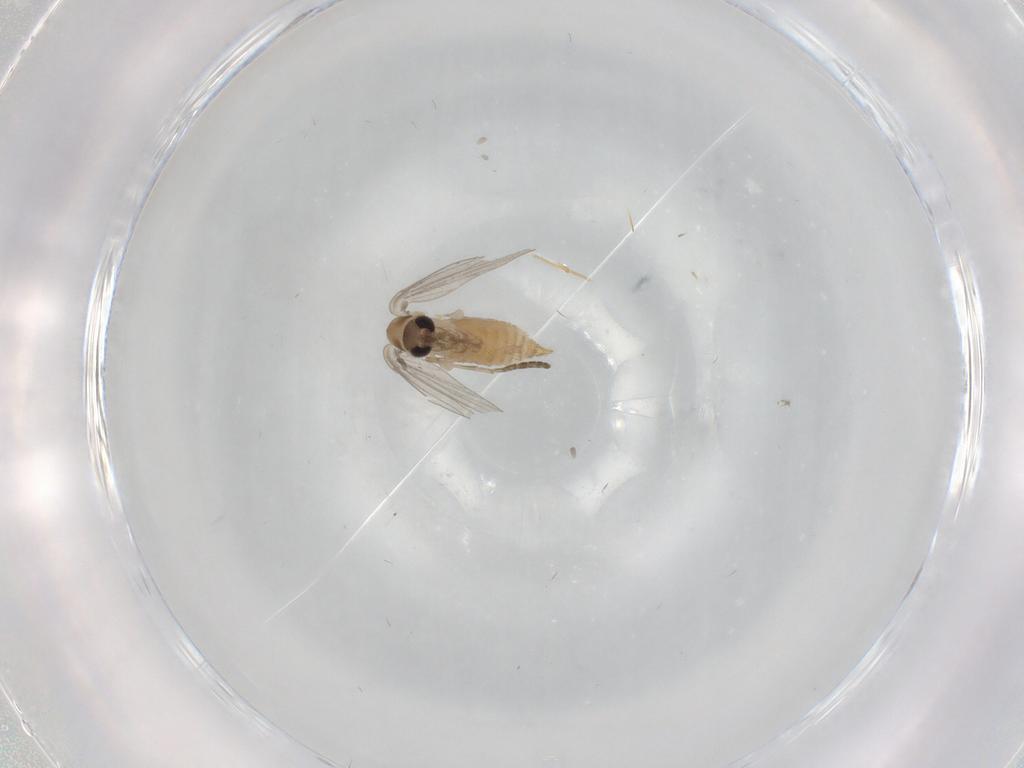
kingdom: Animalia
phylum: Arthropoda
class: Insecta
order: Diptera
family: Psychodidae
